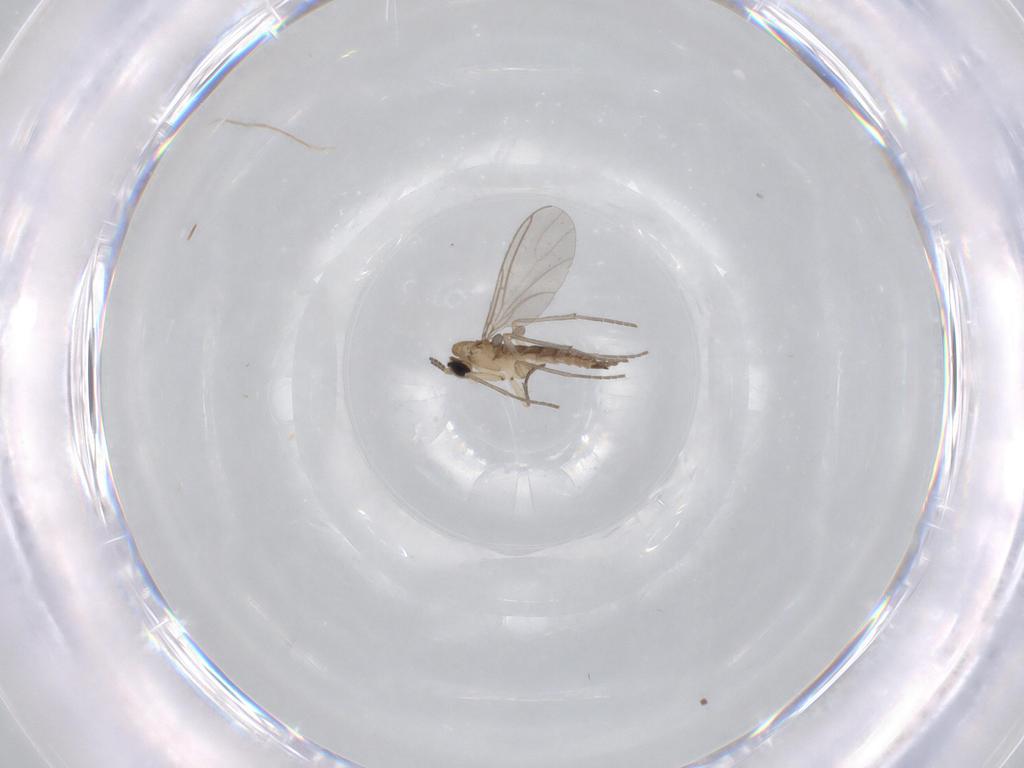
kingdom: Animalia
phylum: Arthropoda
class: Insecta
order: Diptera
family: Sciaridae
